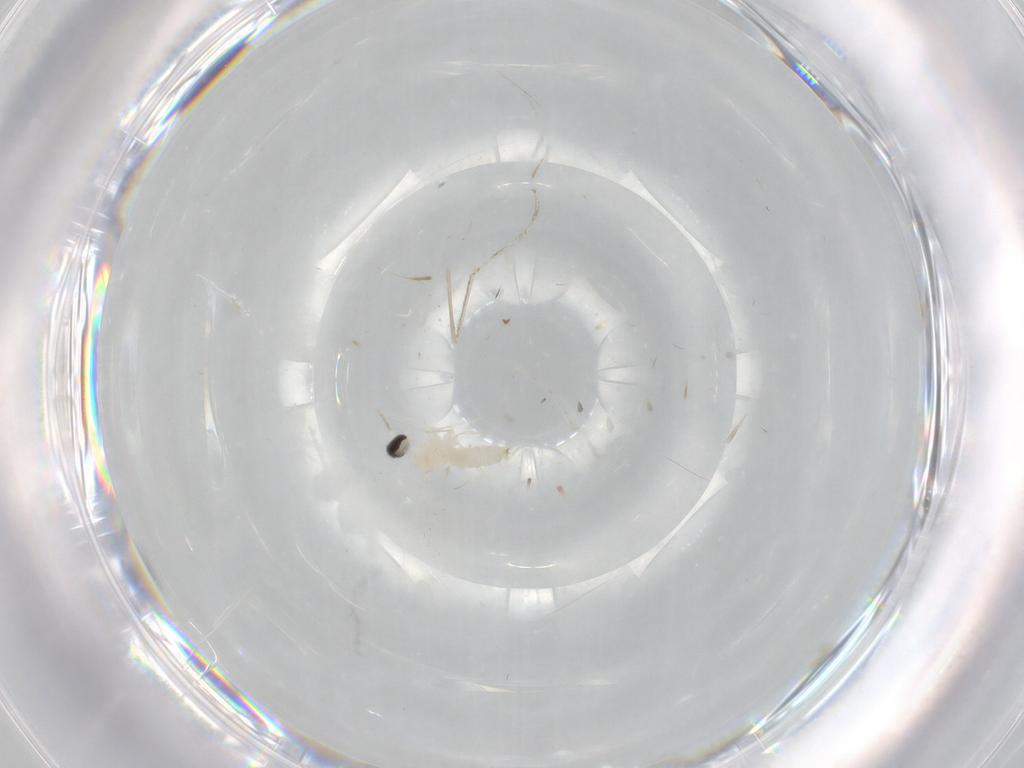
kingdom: Animalia
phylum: Arthropoda
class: Insecta
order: Diptera
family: Cecidomyiidae
